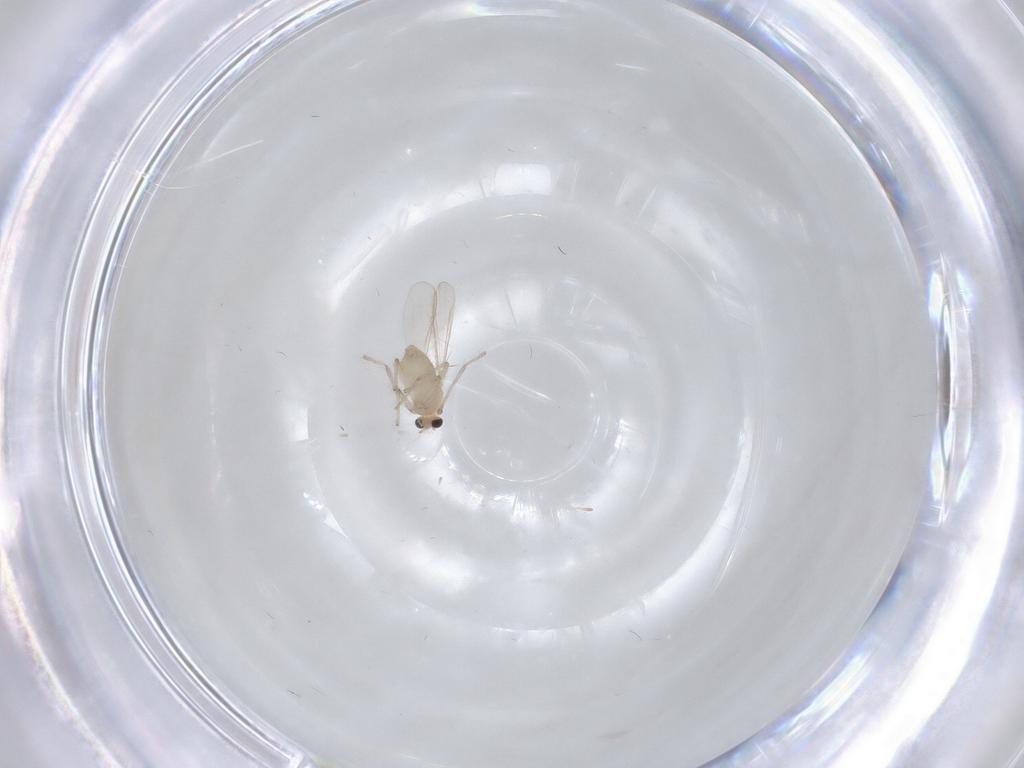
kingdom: Animalia
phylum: Arthropoda
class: Insecta
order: Diptera
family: Chironomidae
